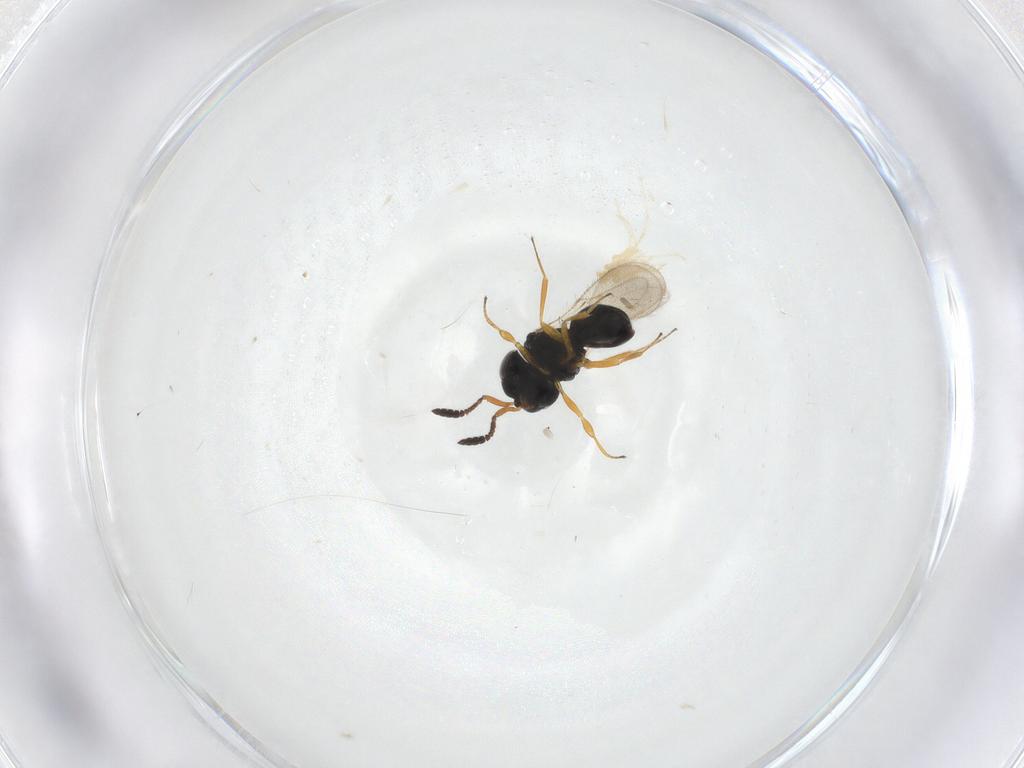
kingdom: Animalia
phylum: Arthropoda
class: Insecta
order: Hymenoptera
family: Scelionidae
